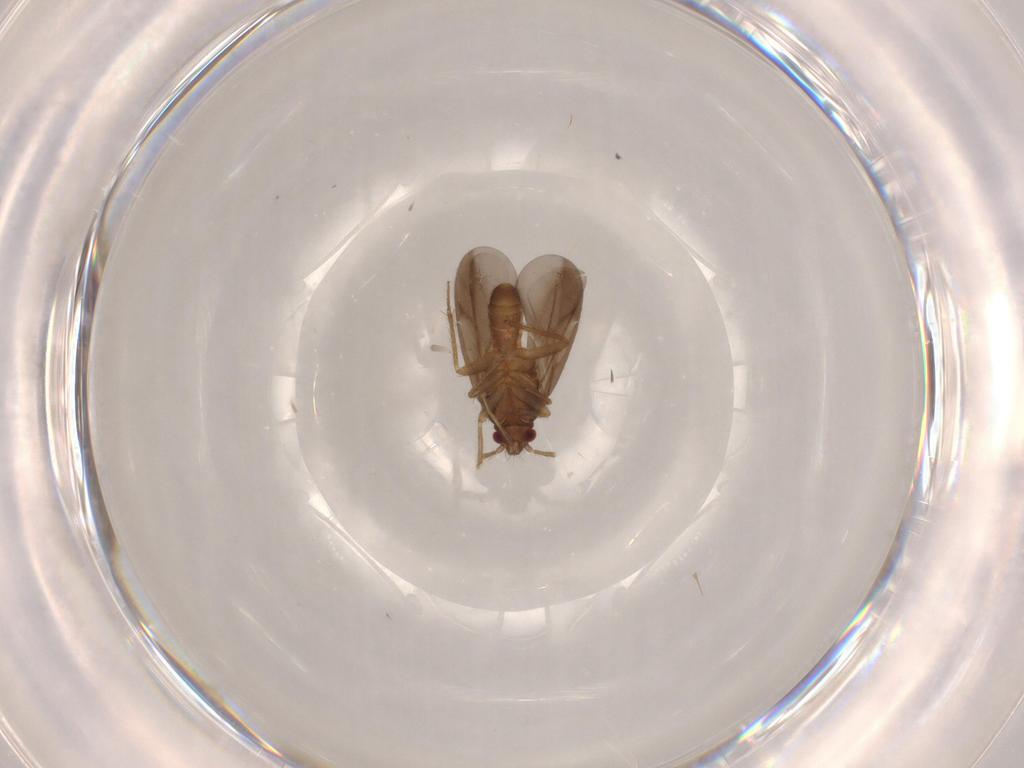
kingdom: Animalia
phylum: Arthropoda
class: Insecta
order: Hemiptera
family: Ceratocombidae
